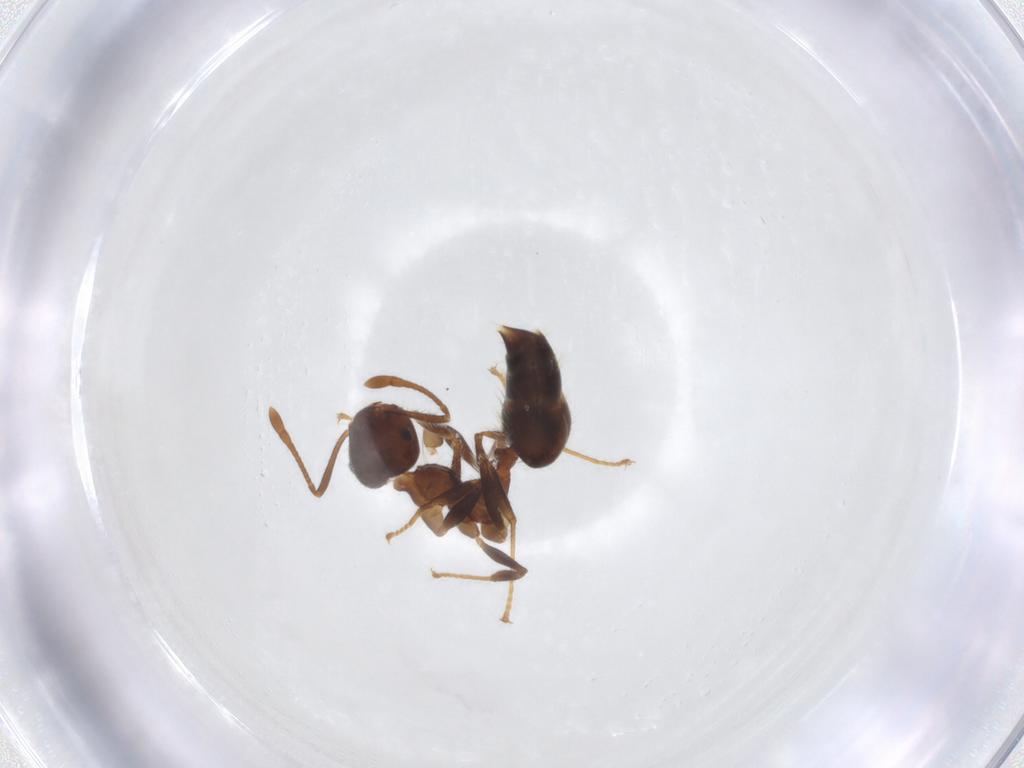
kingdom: Animalia
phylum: Arthropoda
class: Insecta
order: Hymenoptera
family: Formicidae
